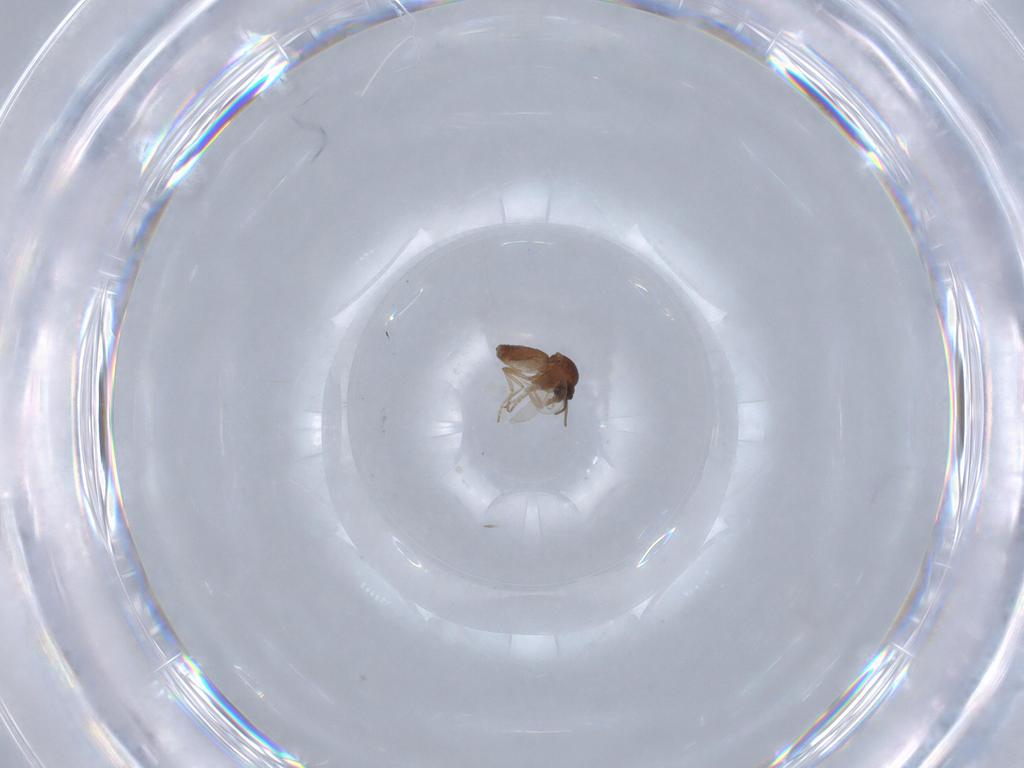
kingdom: Animalia
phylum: Arthropoda
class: Insecta
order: Diptera
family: Ceratopogonidae
